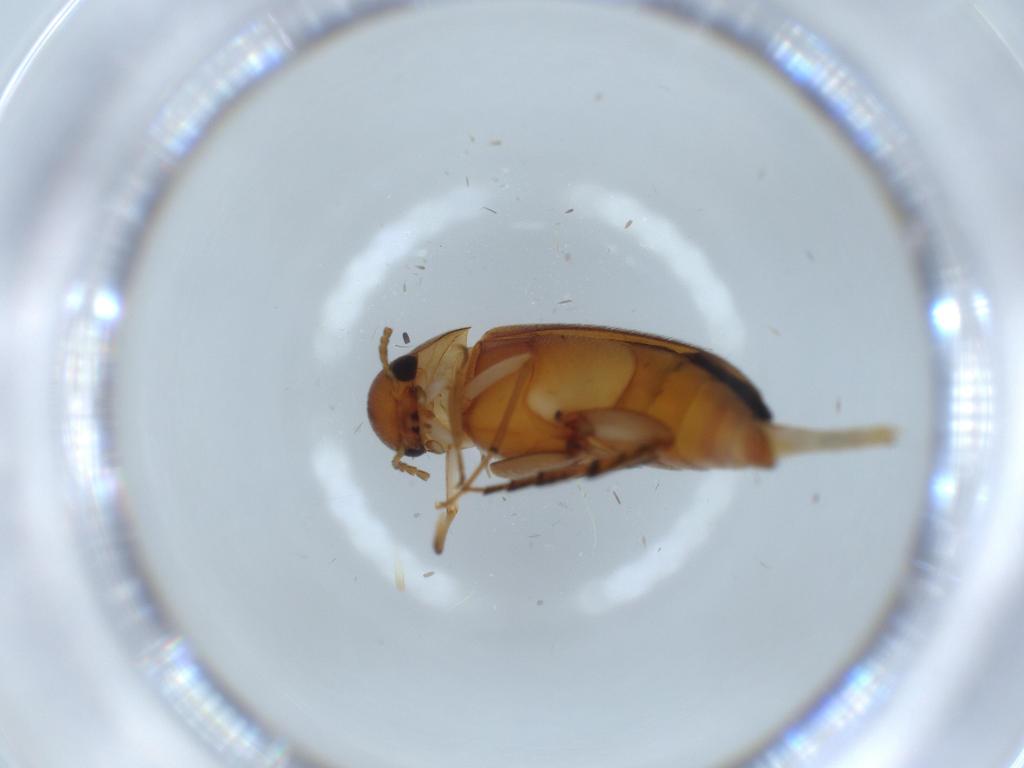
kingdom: Animalia
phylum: Arthropoda
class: Insecta
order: Coleoptera
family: Mordellidae
